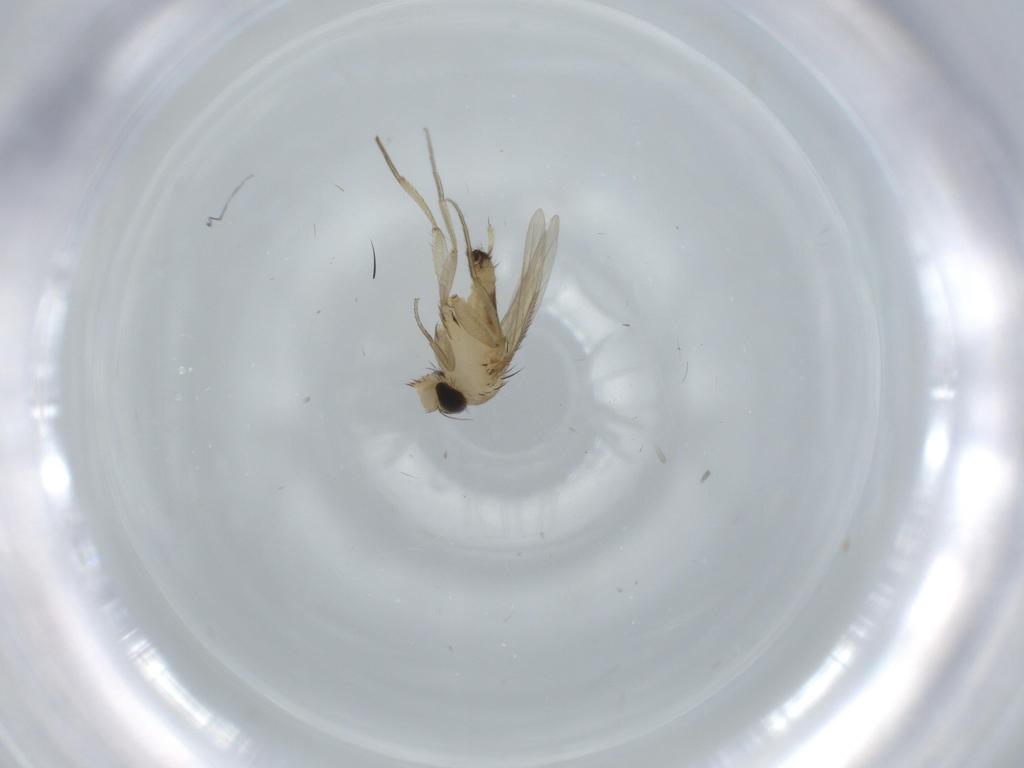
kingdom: Animalia
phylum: Arthropoda
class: Insecta
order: Diptera
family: Phoridae
